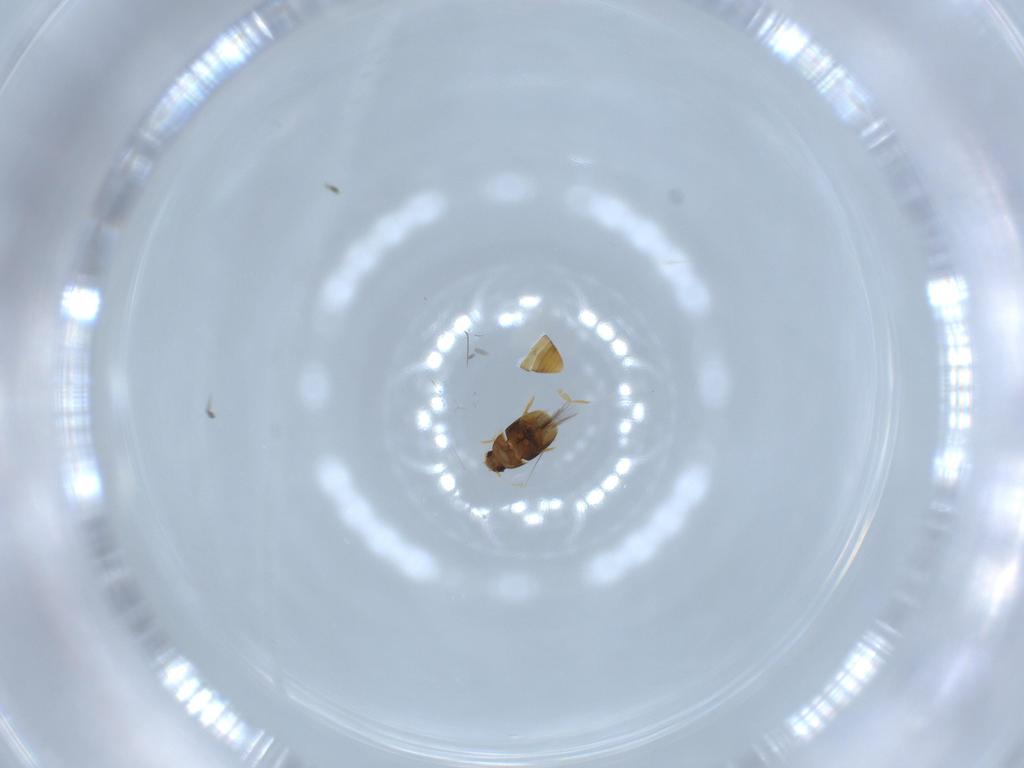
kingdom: Animalia
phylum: Arthropoda
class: Insecta
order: Coleoptera
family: Ptiliidae
